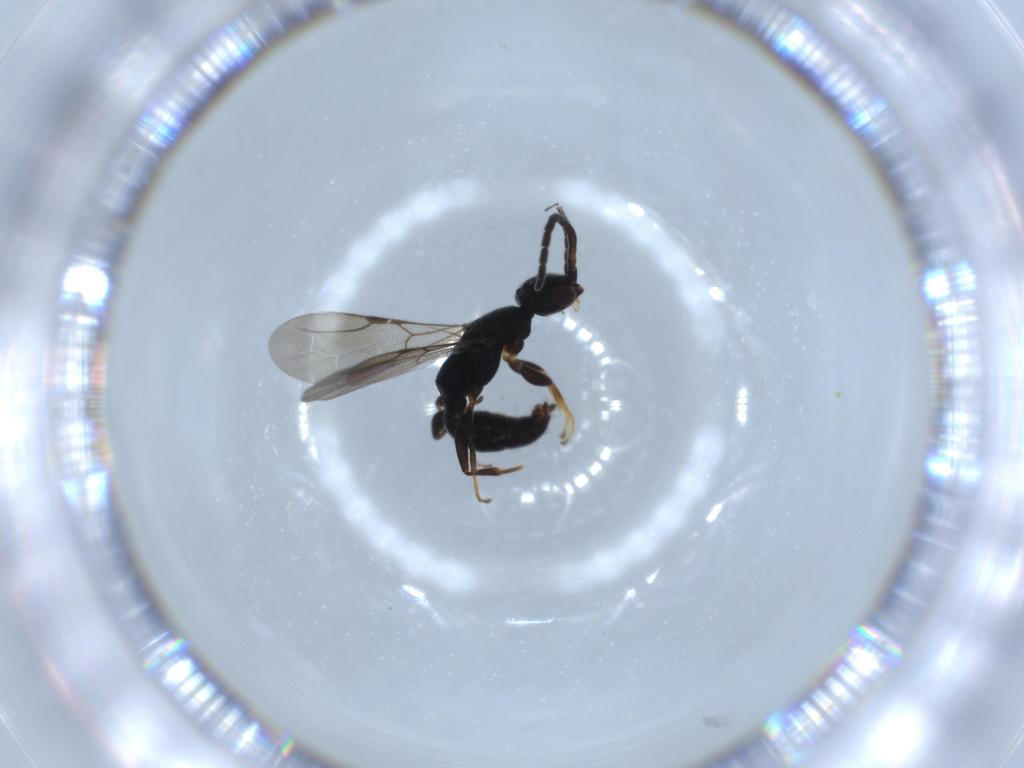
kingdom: Animalia
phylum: Arthropoda
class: Insecta
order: Hymenoptera
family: Bethylidae
